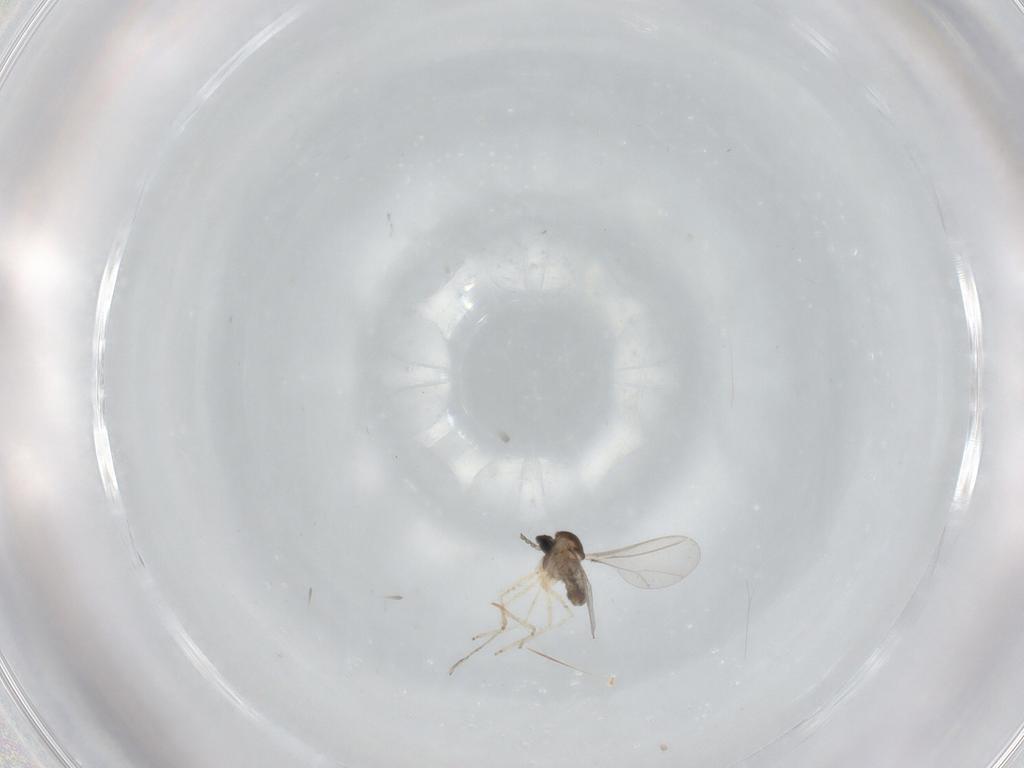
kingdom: Animalia
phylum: Arthropoda
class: Insecta
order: Diptera
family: Cecidomyiidae
